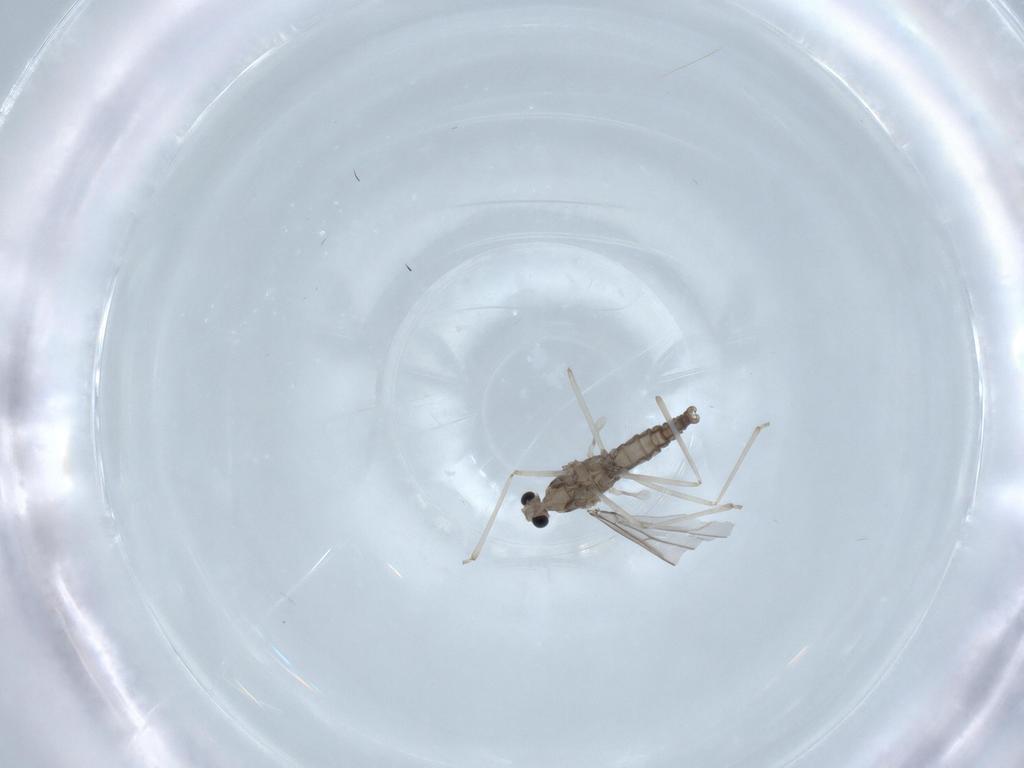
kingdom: Animalia
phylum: Arthropoda
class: Insecta
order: Diptera
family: Cecidomyiidae
